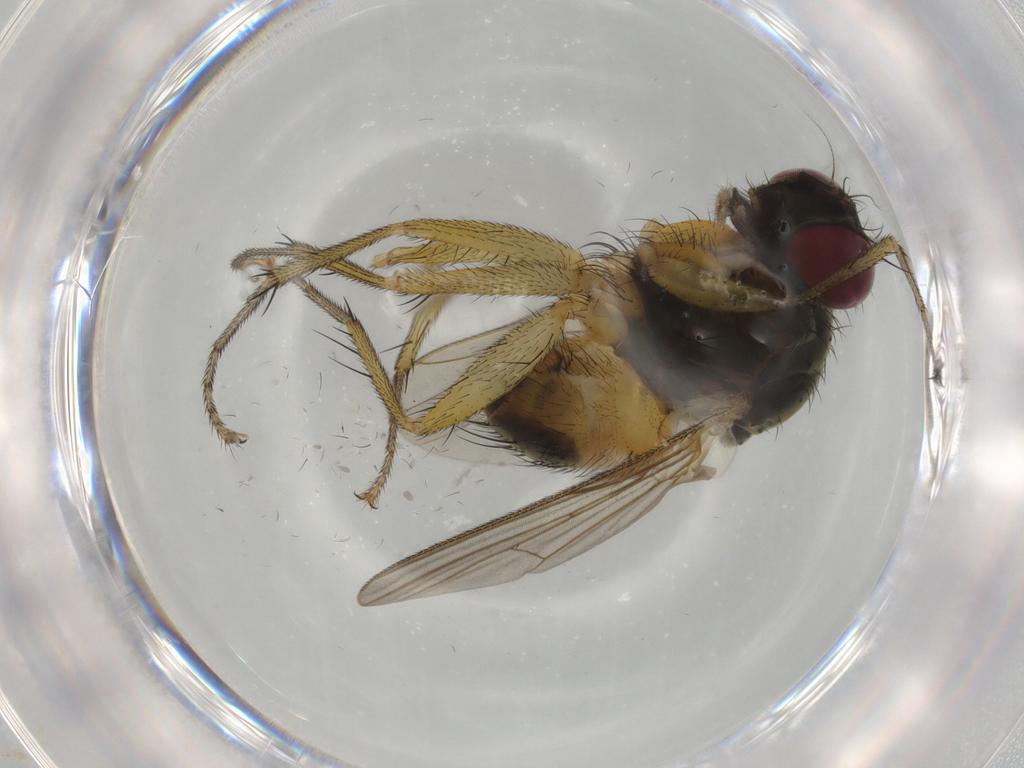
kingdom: Animalia
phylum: Arthropoda
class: Insecta
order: Diptera
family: Muscidae
